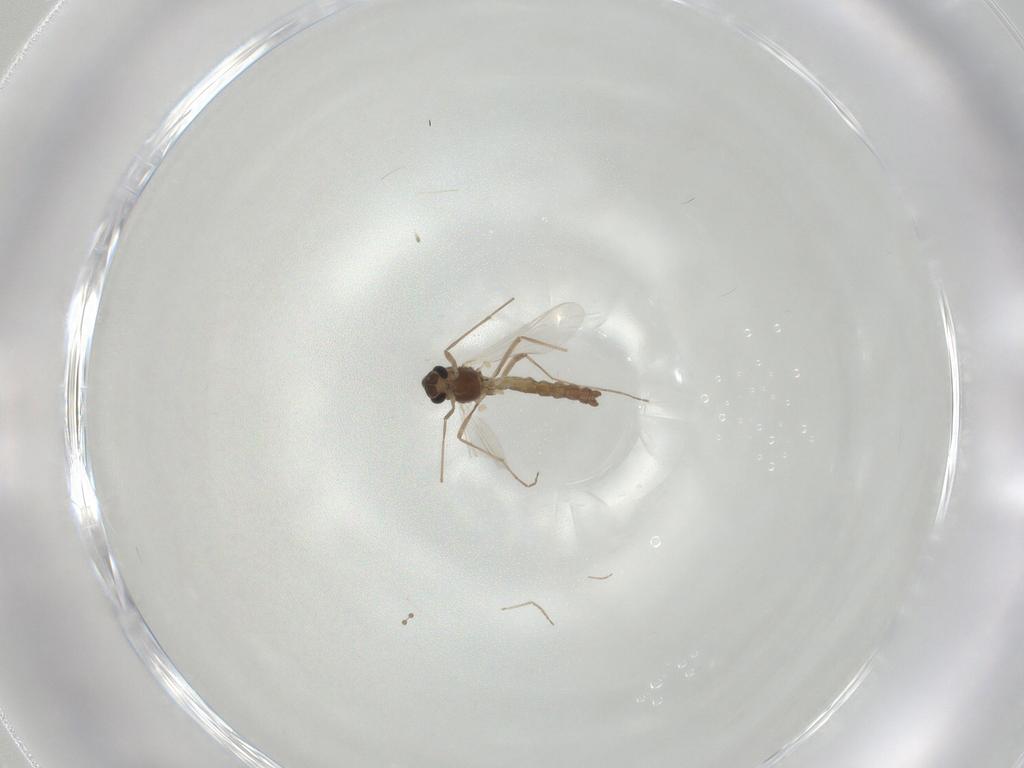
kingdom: Animalia
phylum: Arthropoda
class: Insecta
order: Diptera
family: Chironomidae
